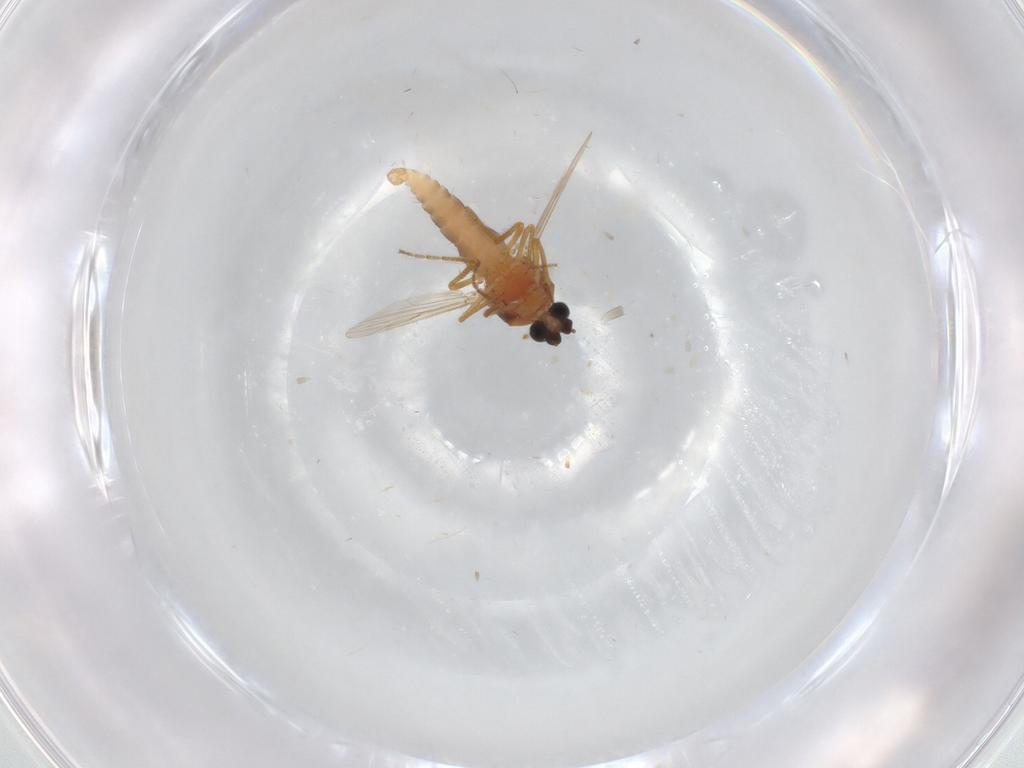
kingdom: Animalia
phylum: Arthropoda
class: Insecta
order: Diptera
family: Ceratopogonidae
